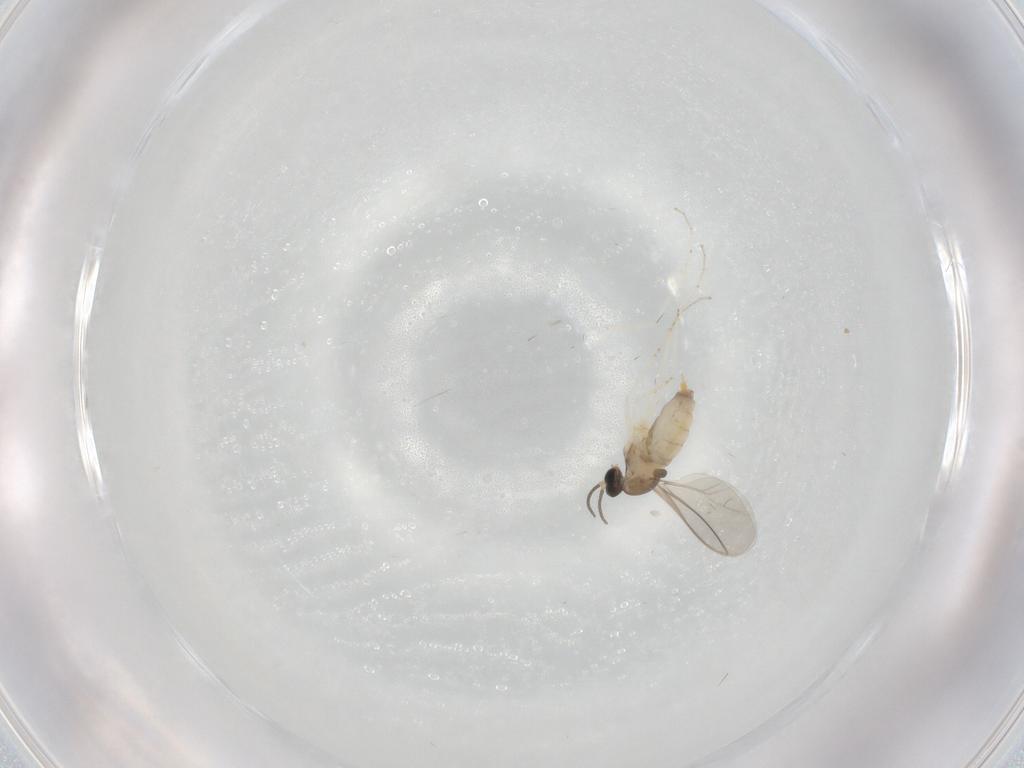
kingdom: Animalia
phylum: Arthropoda
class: Insecta
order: Diptera
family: Cecidomyiidae
